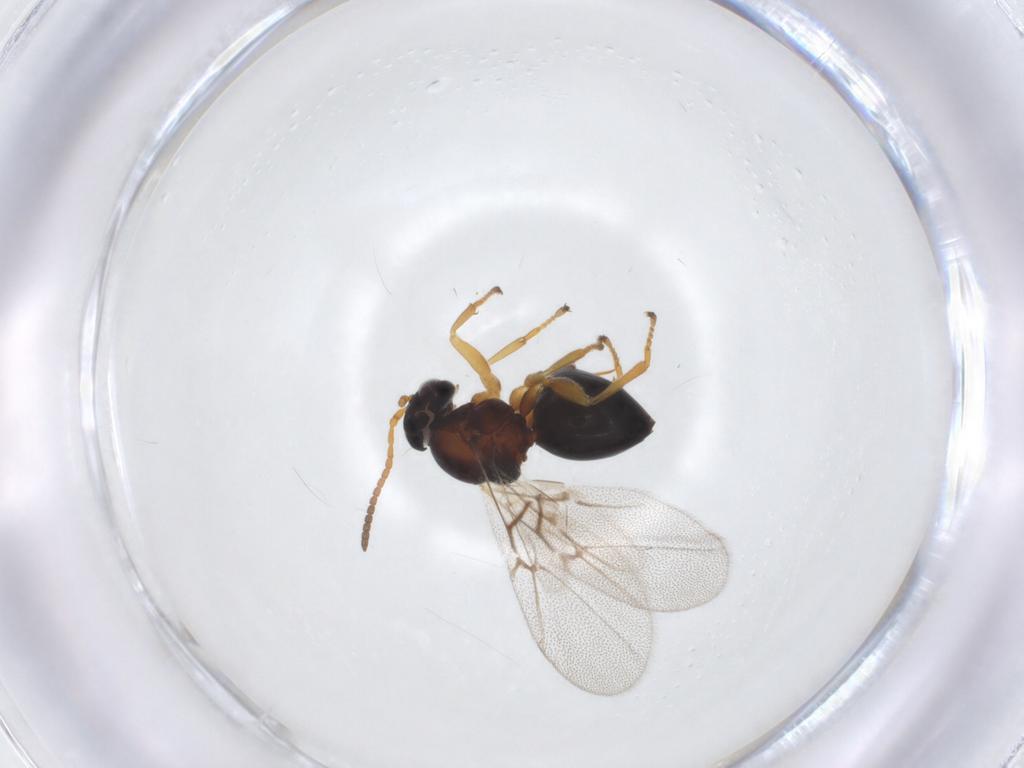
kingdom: Animalia
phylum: Arthropoda
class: Insecta
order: Hymenoptera
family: Cynipidae
